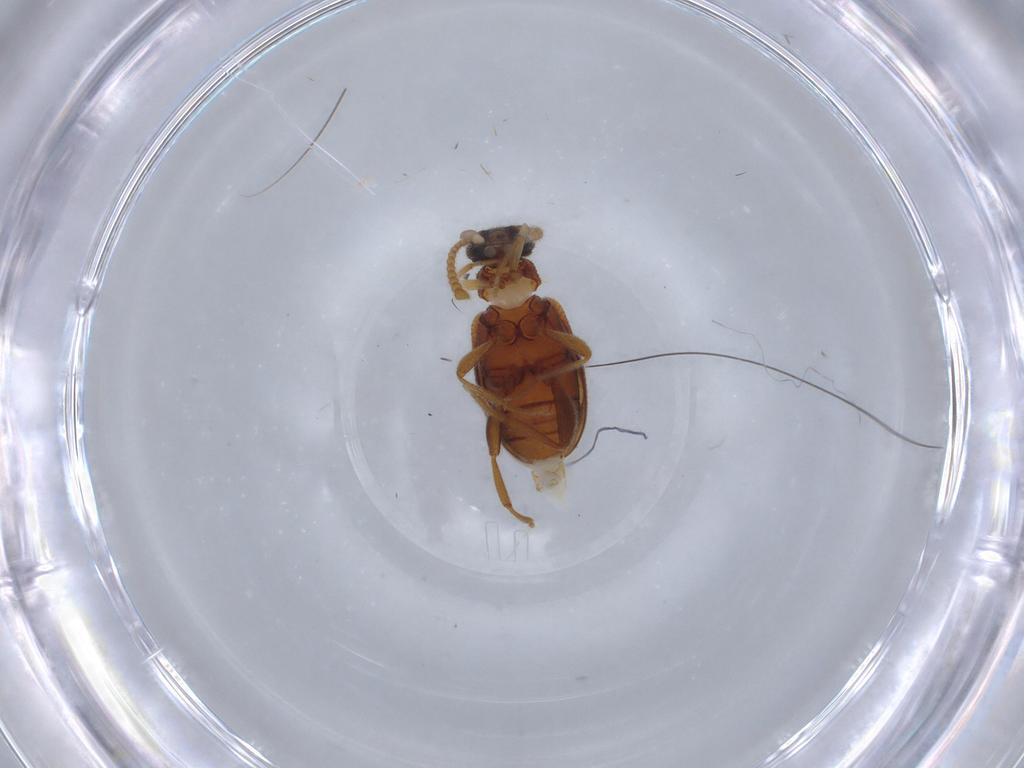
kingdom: Animalia
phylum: Arthropoda
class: Insecta
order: Coleoptera
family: Aderidae
